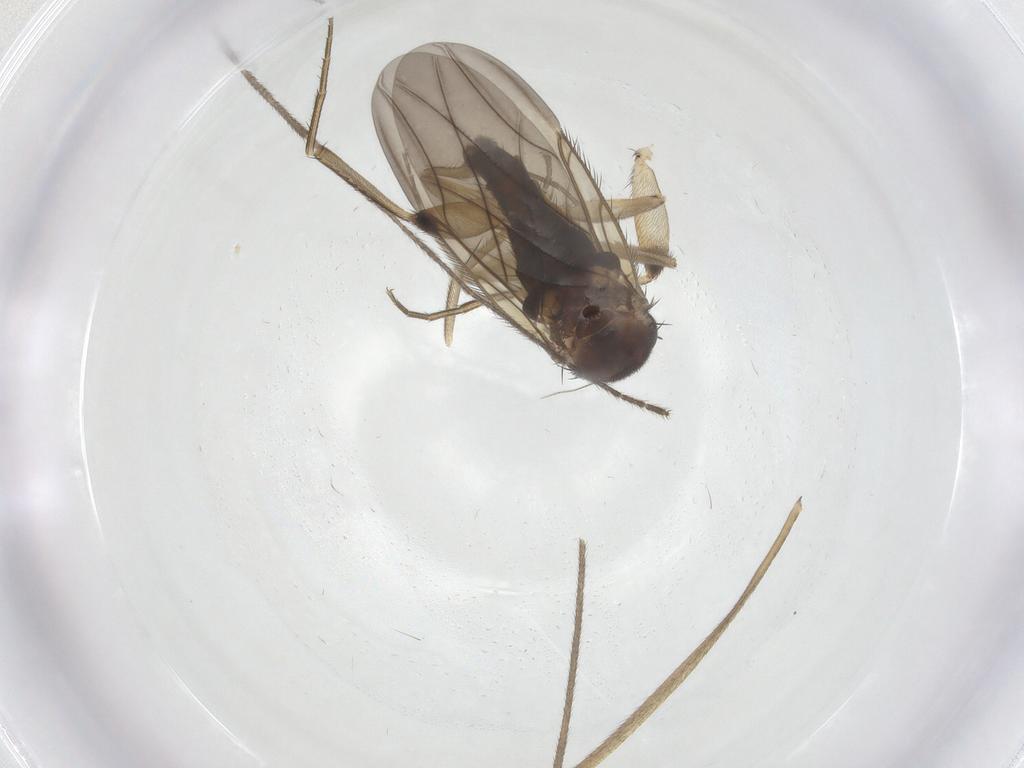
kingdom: Animalia
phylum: Arthropoda
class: Insecta
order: Diptera
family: Phoridae
